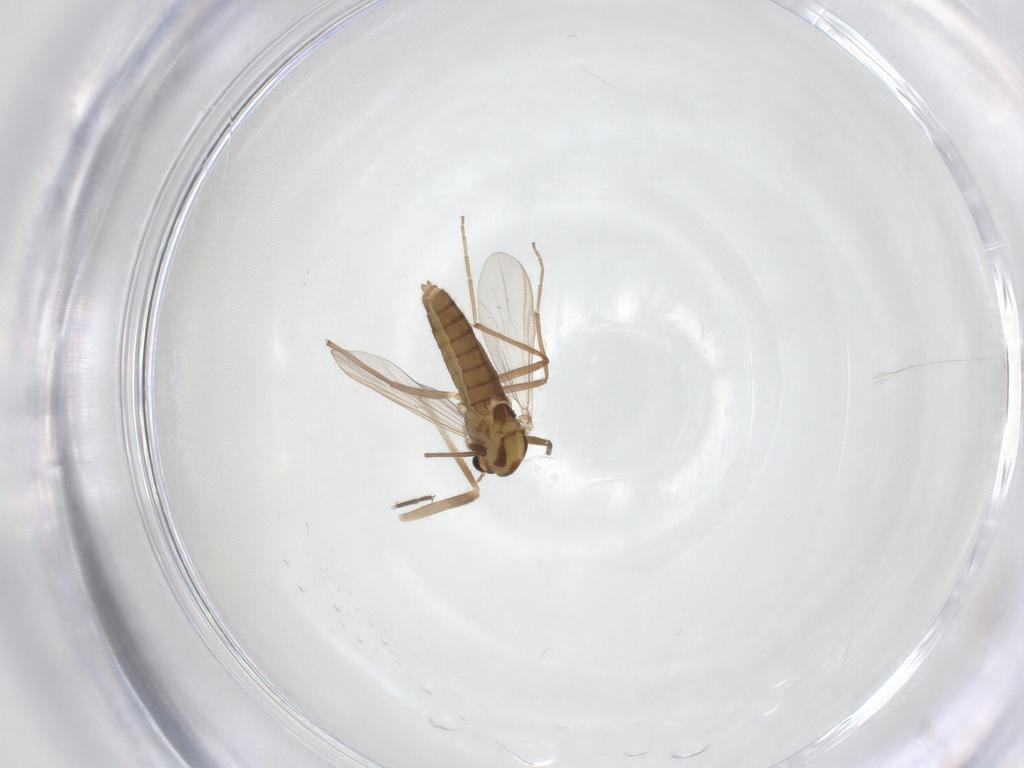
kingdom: Animalia
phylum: Arthropoda
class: Insecta
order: Diptera
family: Chironomidae
